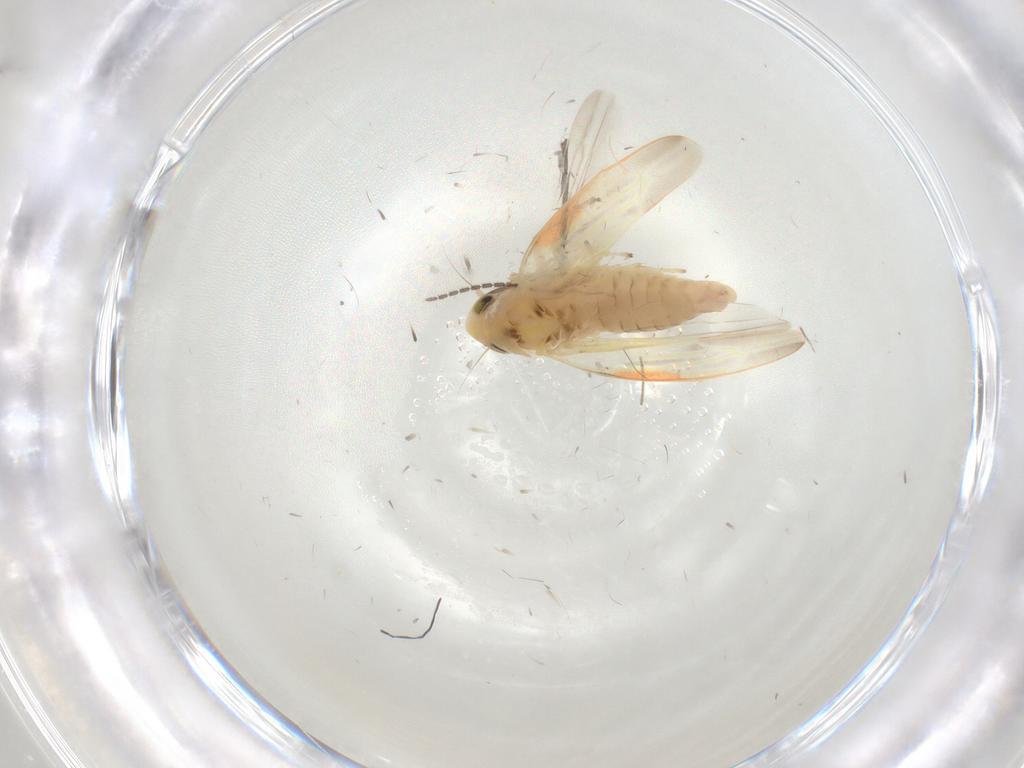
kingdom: Animalia
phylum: Arthropoda
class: Insecta
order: Hemiptera
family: Cicadellidae
